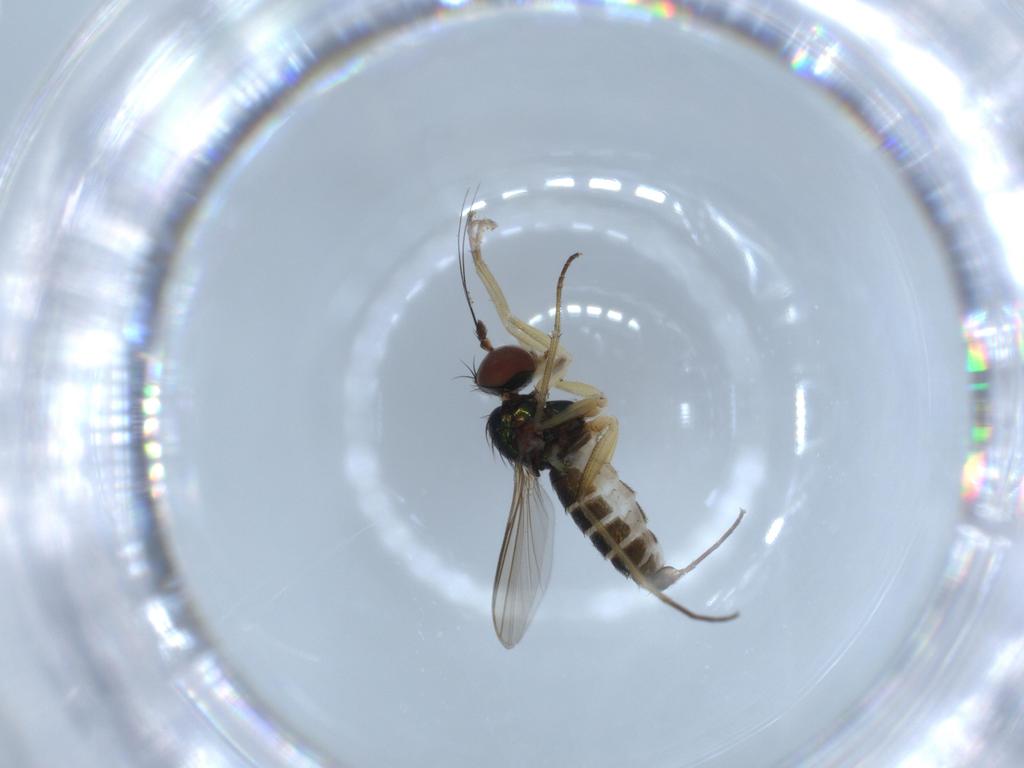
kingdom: Animalia
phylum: Arthropoda
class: Insecta
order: Diptera
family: Dolichopodidae
